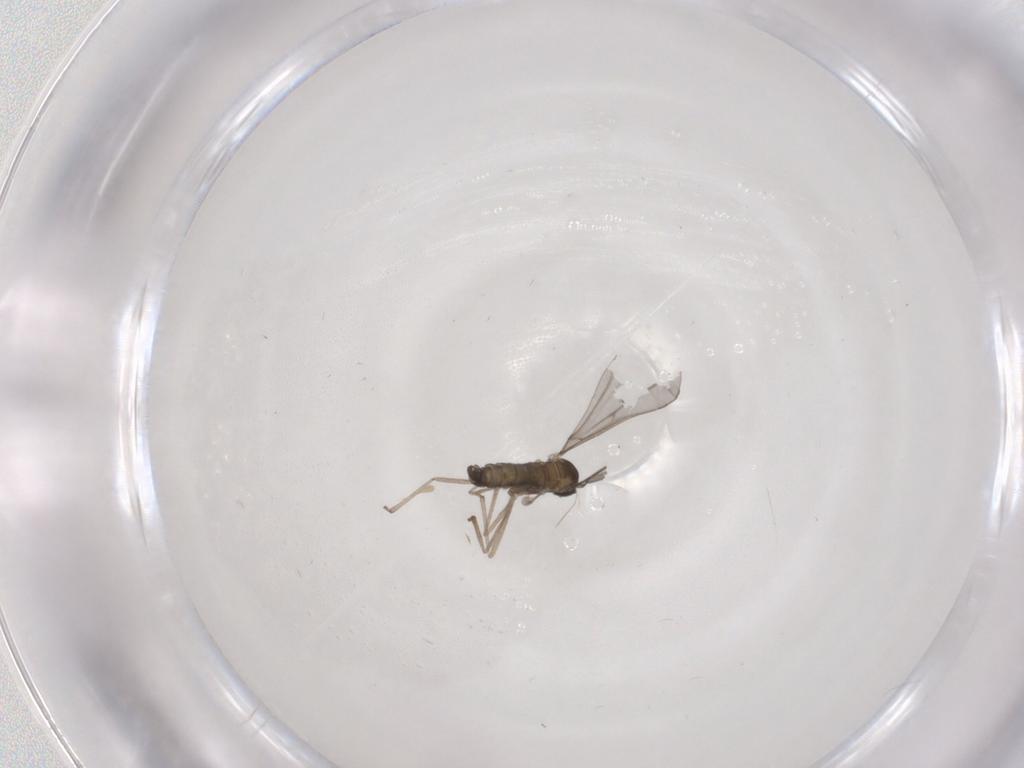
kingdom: Animalia
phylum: Arthropoda
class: Insecta
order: Diptera
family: Cecidomyiidae
